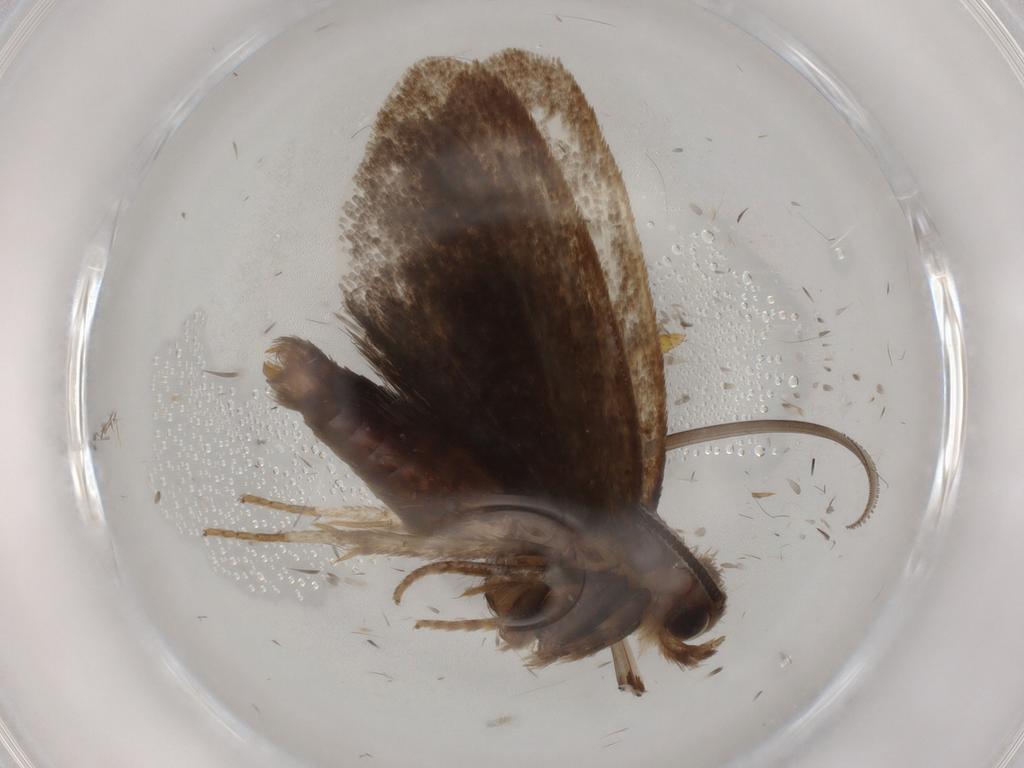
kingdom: Animalia
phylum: Arthropoda
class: Insecta
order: Lepidoptera
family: Tineidae
